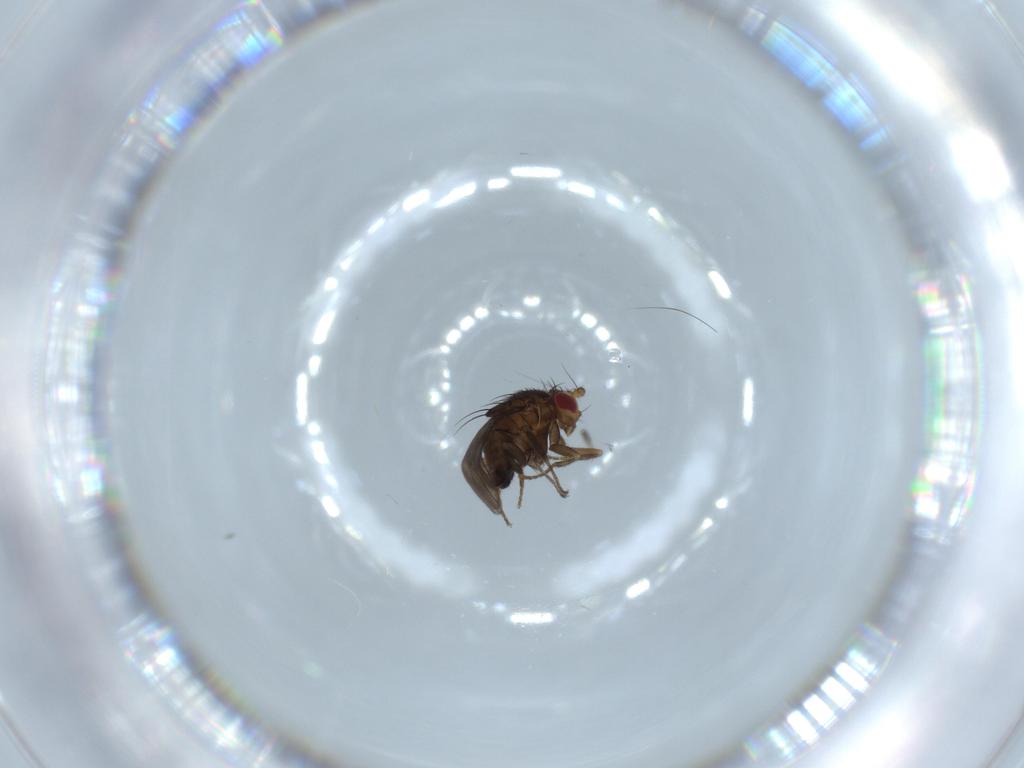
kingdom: Animalia
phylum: Arthropoda
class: Insecta
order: Diptera
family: Sphaeroceridae
